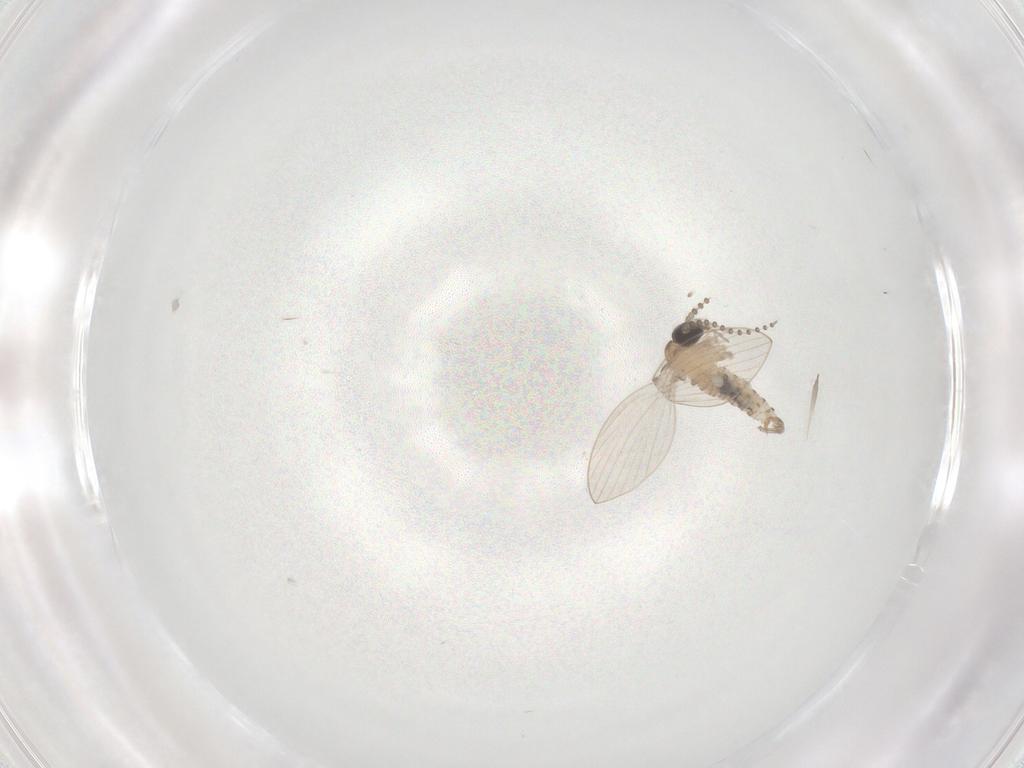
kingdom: Animalia
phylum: Arthropoda
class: Insecta
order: Diptera
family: Psychodidae
